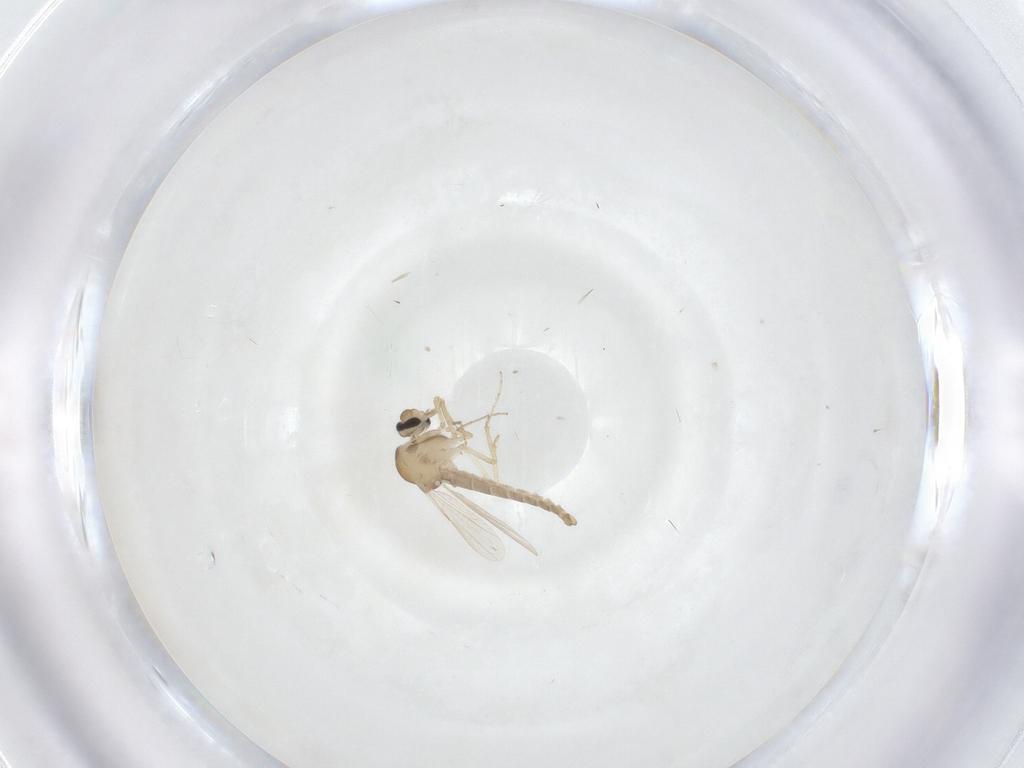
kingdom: Animalia
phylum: Arthropoda
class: Insecta
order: Diptera
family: Ceratopogonidae
